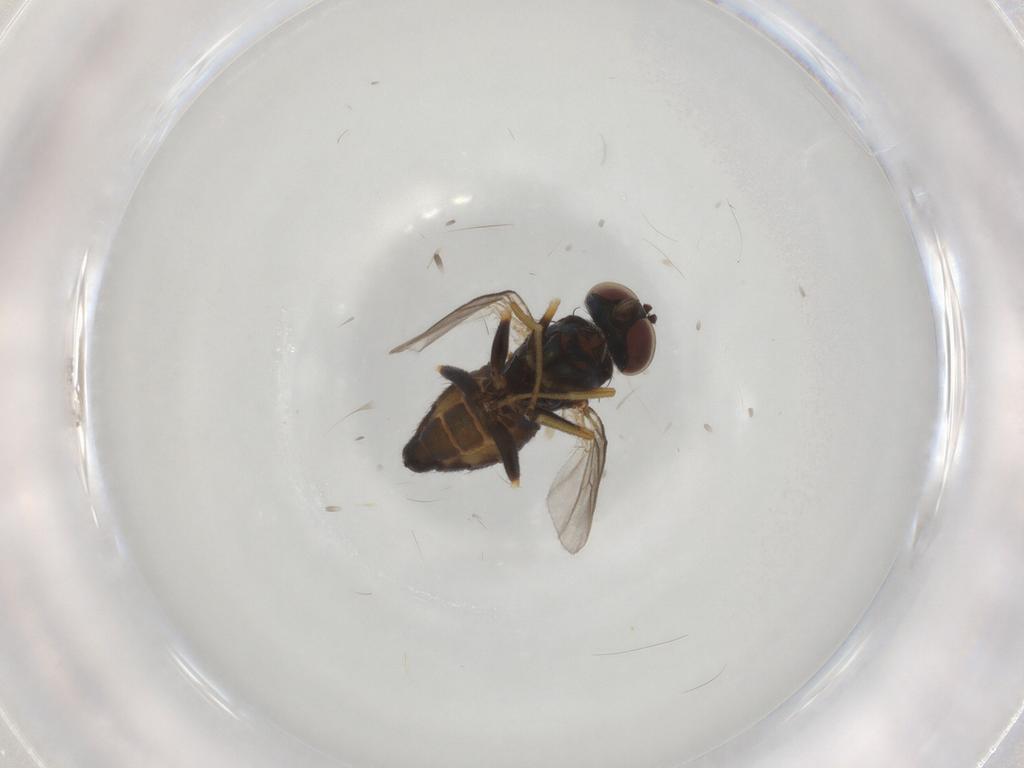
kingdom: Animalia
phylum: Arthropoda
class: Insecta
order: Diptera
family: Dolichopodidae
